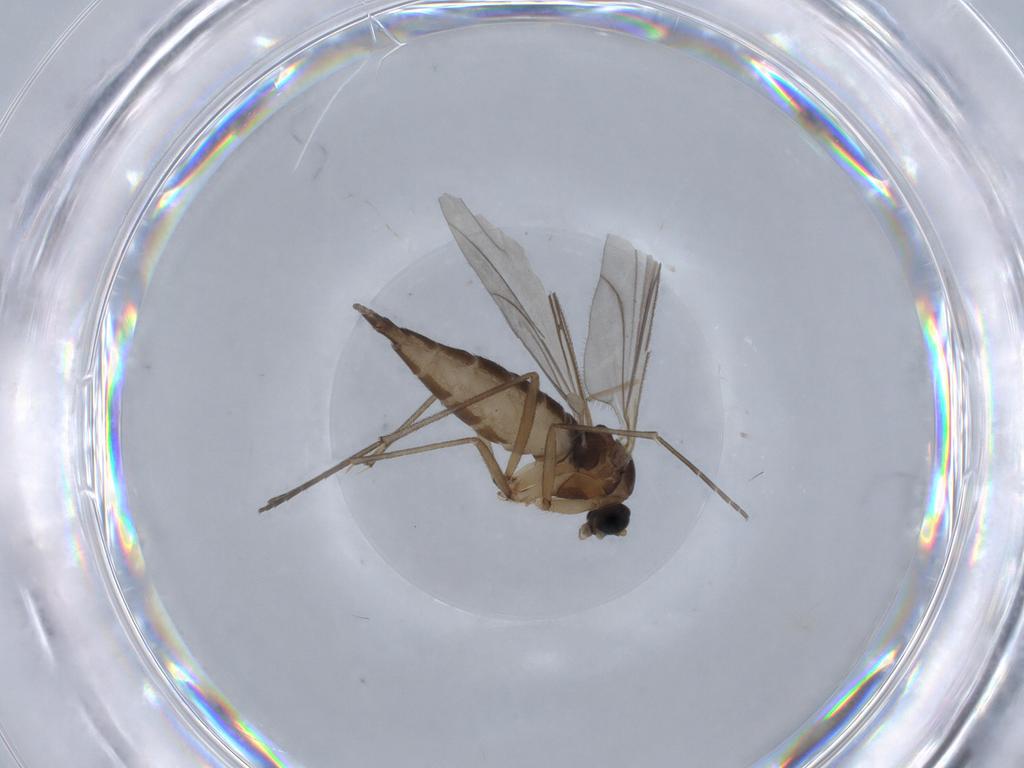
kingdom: Animalia
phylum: Arthropoda
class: Insecta
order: Diptera
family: Sciaridae
